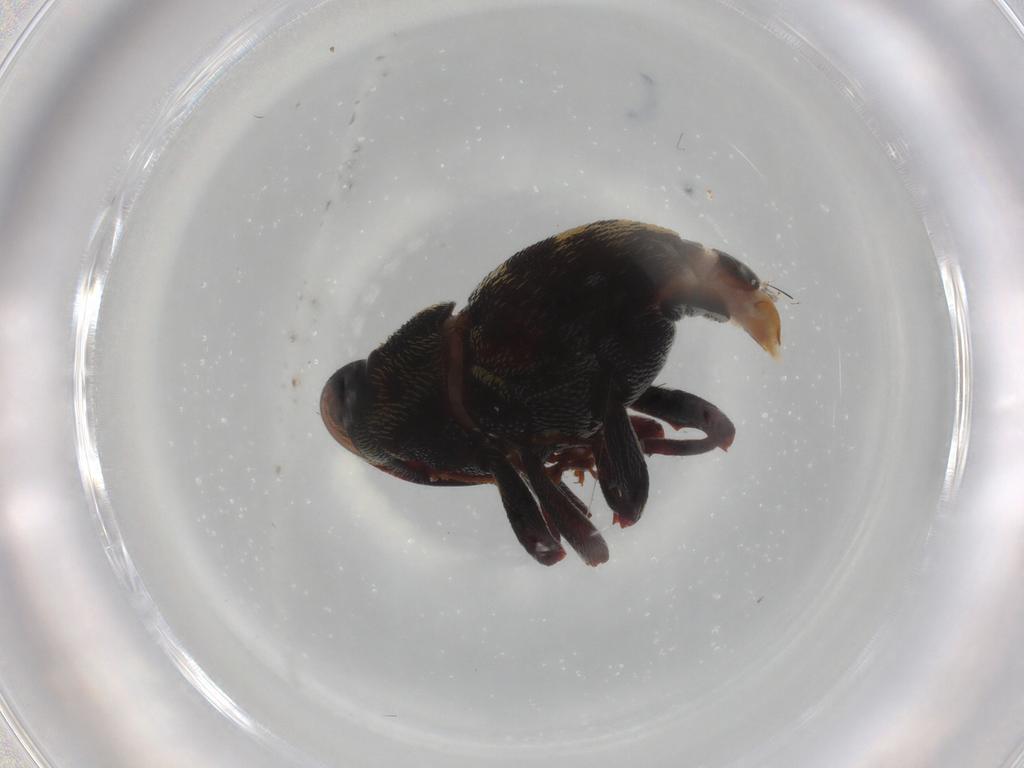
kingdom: Animalia
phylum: Arthropoda
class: Insecta
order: Coleoptera
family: Curculionidae
